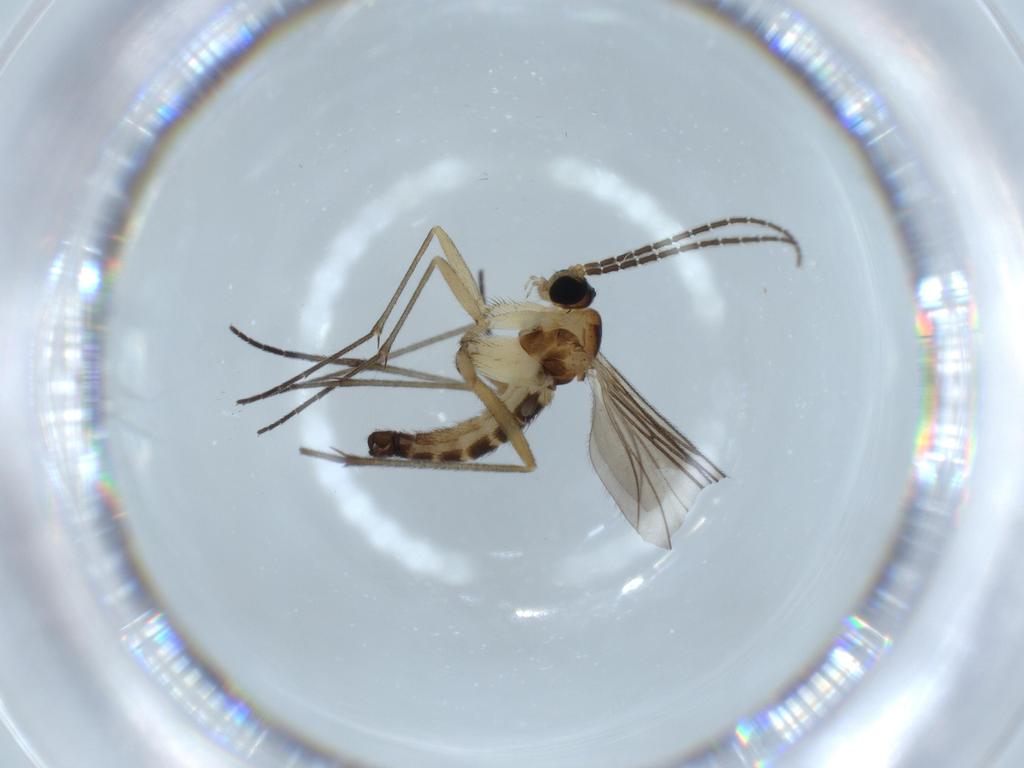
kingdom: Animalia
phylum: Arthropoda
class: Insecta
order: Diptera
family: Sciaridae
